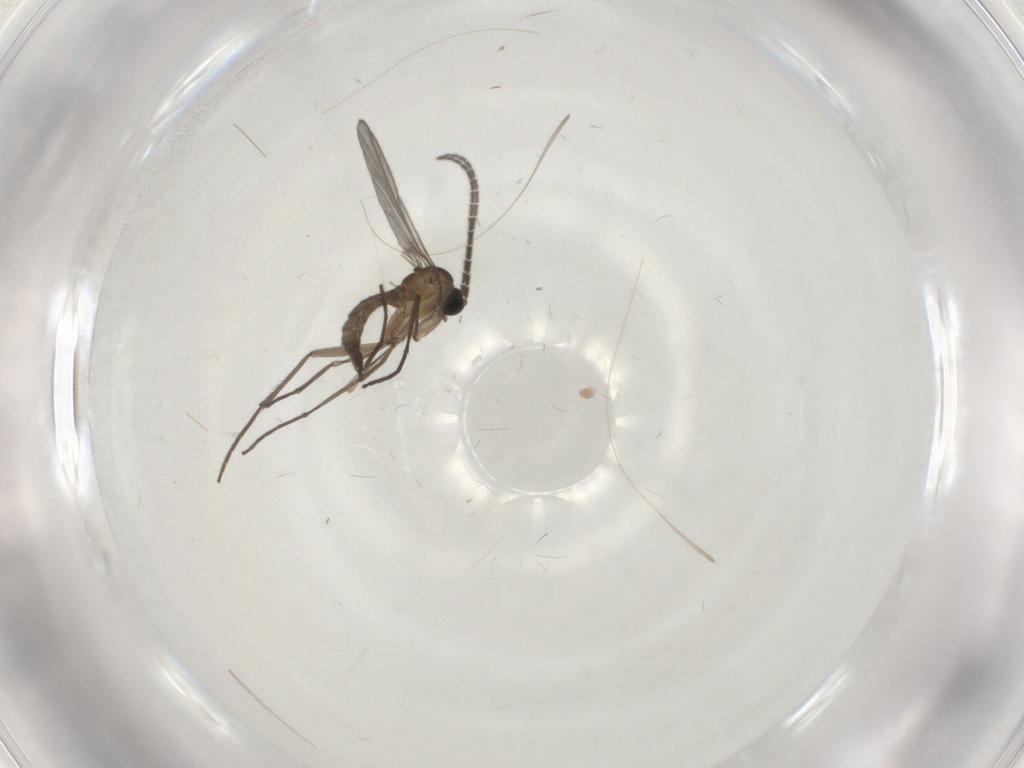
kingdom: Animalia
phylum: Arthropoda
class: Insecta
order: Diptera
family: Sciaridae
